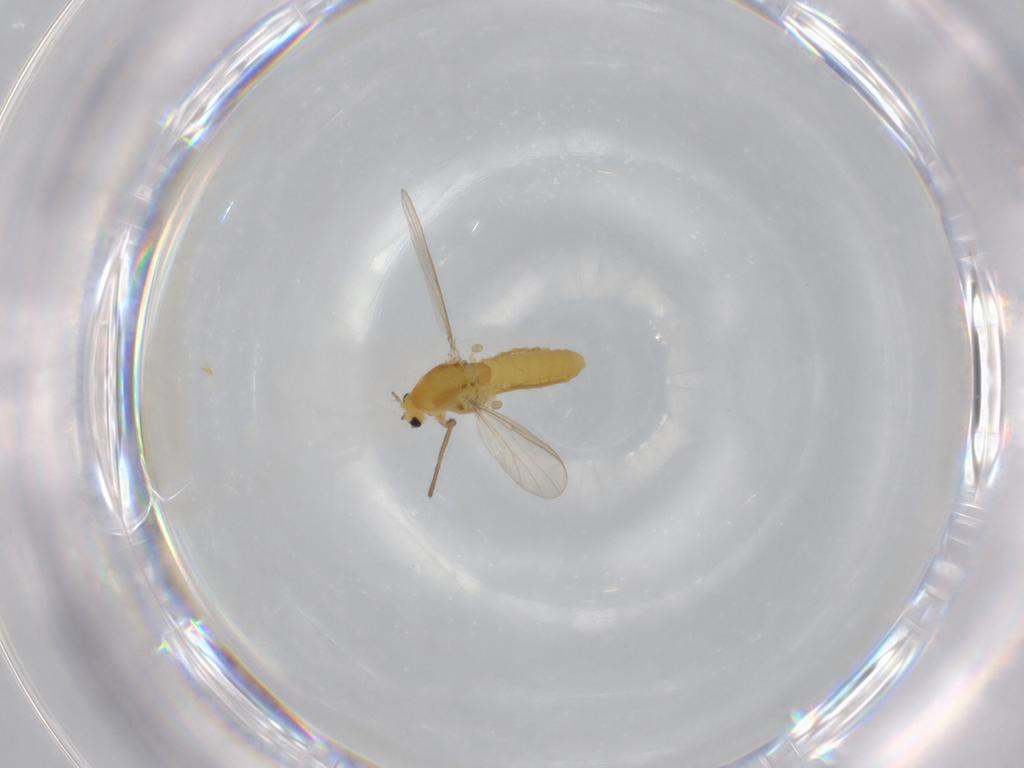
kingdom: Animalia
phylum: Arthropoda
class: Insecta
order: Diptera
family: Chironomidae
